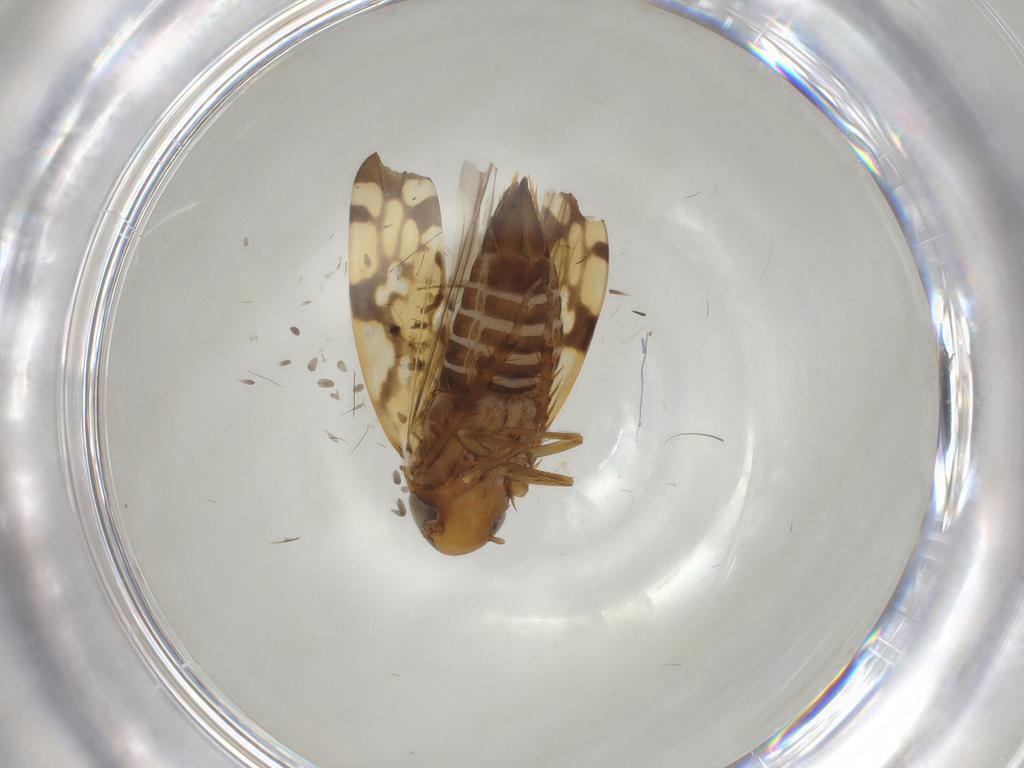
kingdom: Animalia
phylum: Arthropoda
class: Insecta
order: Hemiptera
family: Cicadellidae
